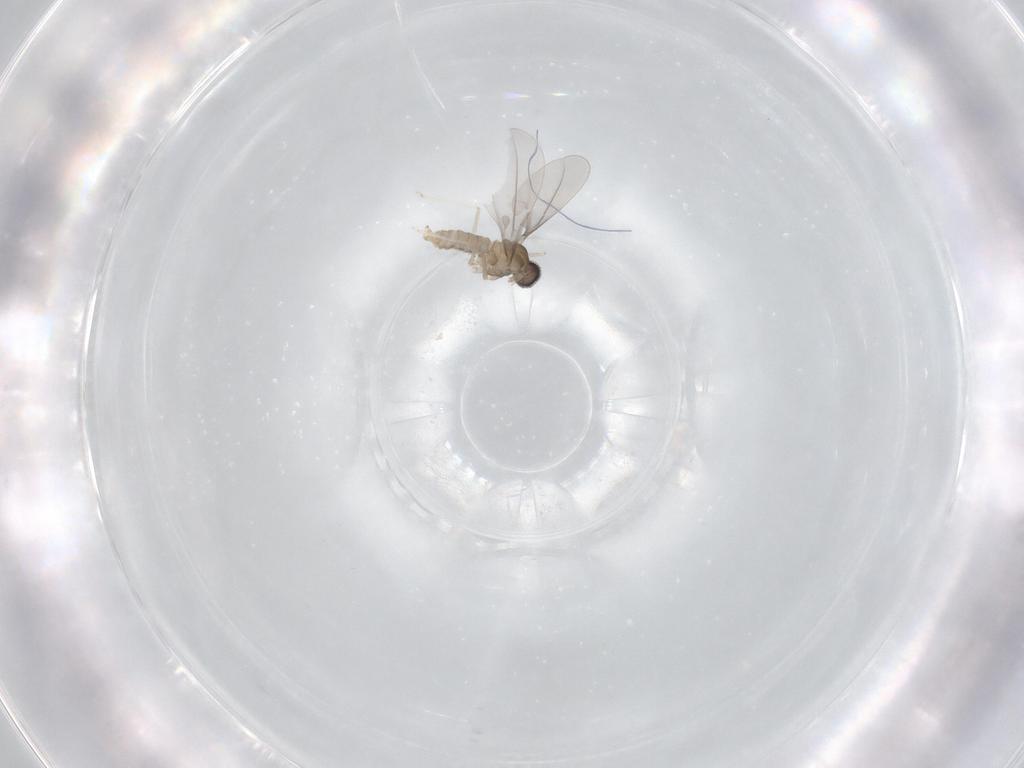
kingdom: Animalia
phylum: Arthropoda
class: Insecta
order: Diptera
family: Cecidomyiidae
